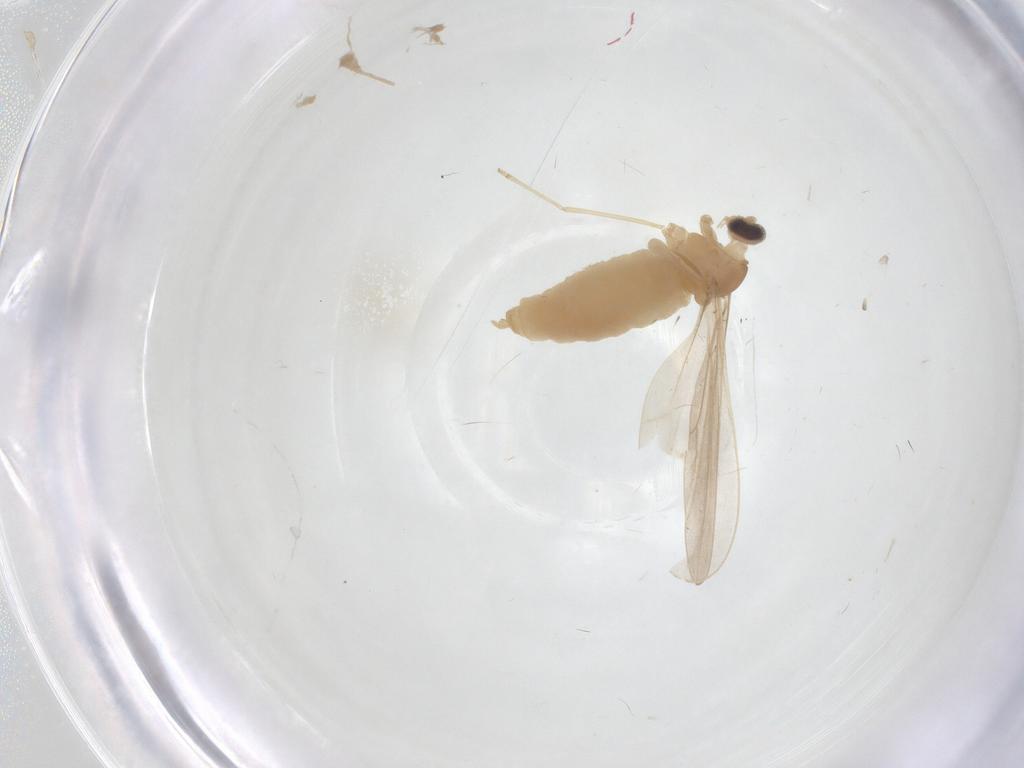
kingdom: Animalia
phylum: Arthropoda
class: Insecta
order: Diptera
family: Cecidomyiidae
